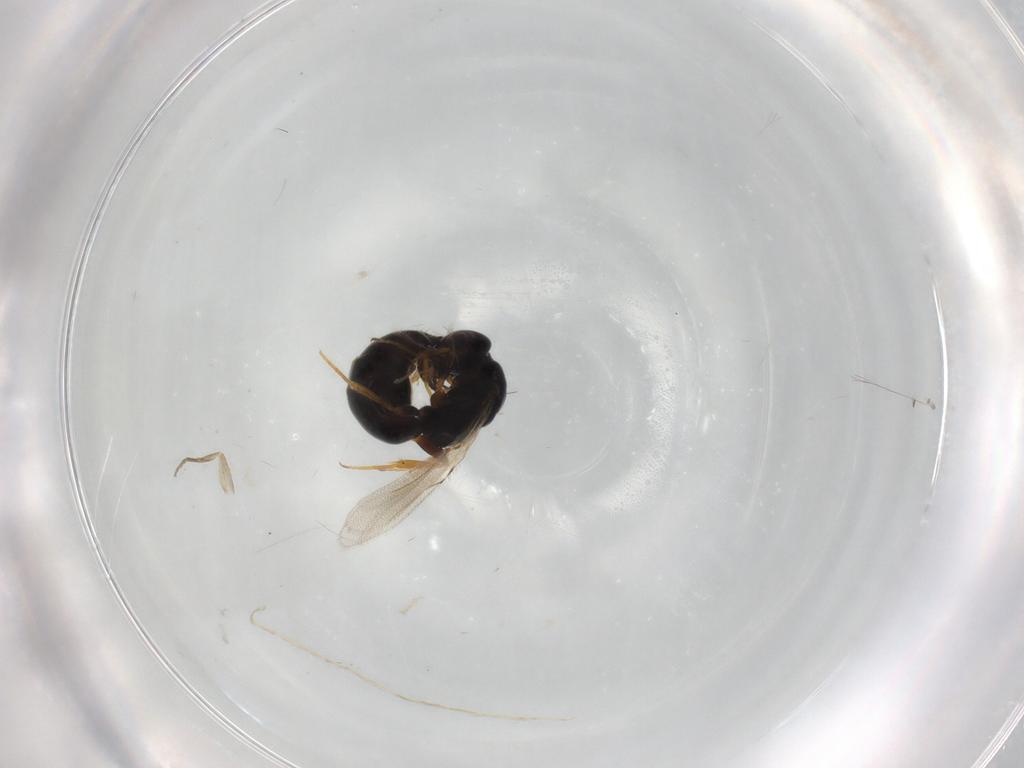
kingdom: Animalia
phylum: Arthropoda
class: Insecta
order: Hymenoptera
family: Bethylidae
